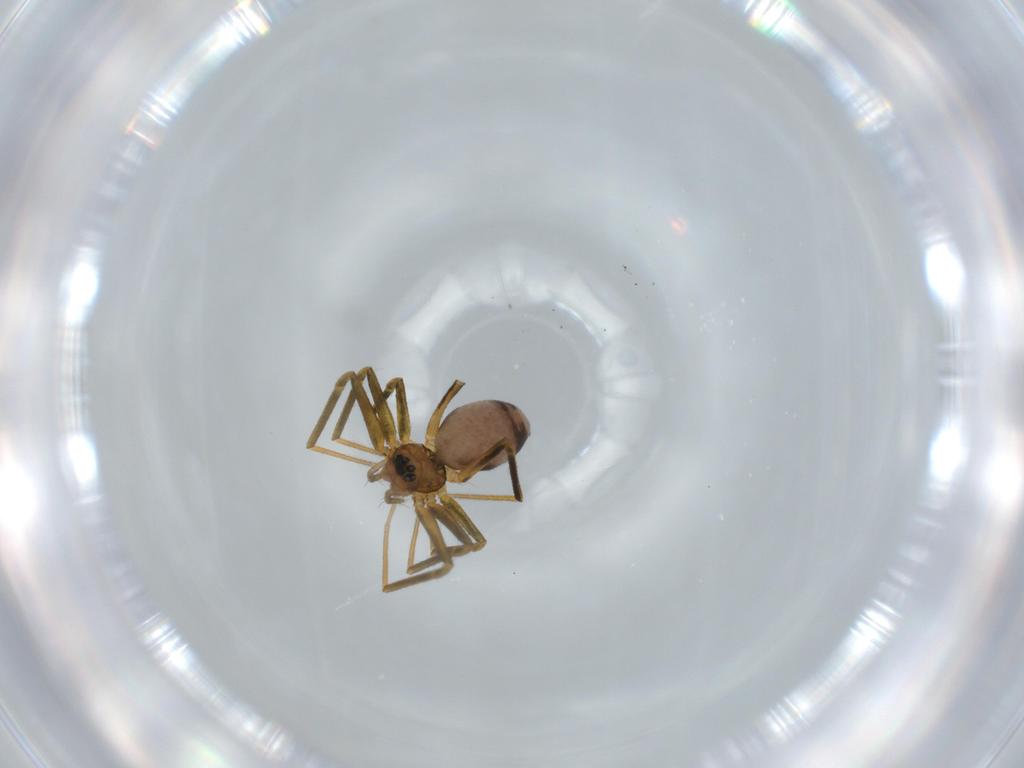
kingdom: Animalia
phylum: Arthropoda
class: Arachnida
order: Araneae
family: Linyphiidae
